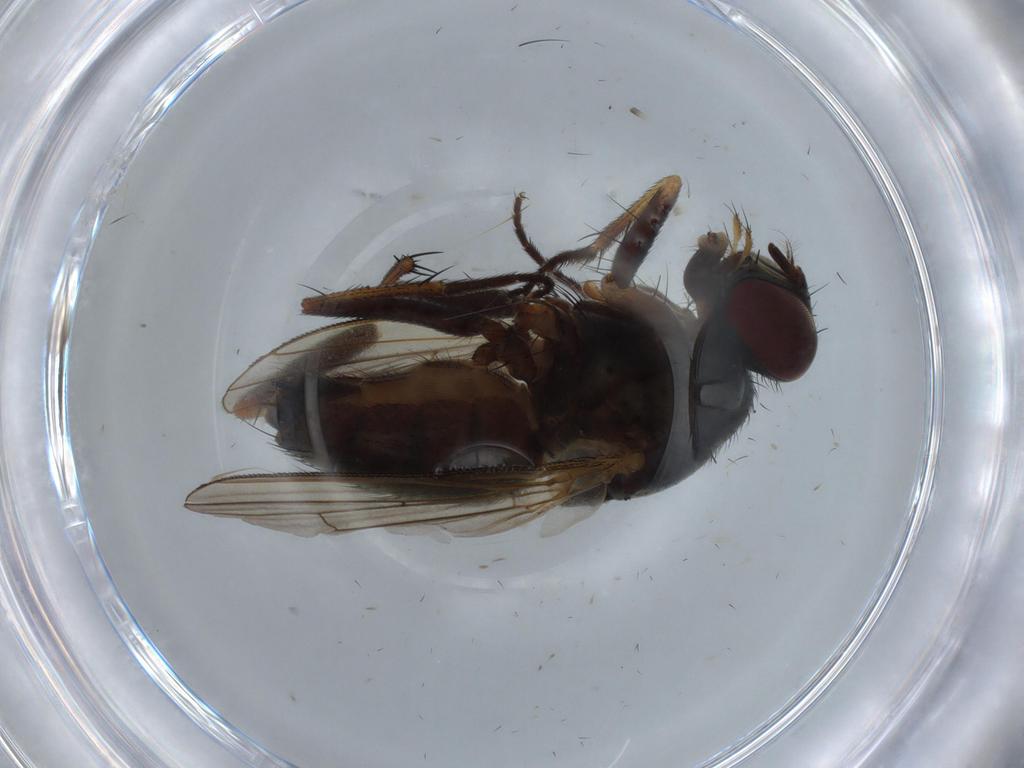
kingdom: Animalia
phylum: Arthropoda
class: Insecta
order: Diptera
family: Muscidae
